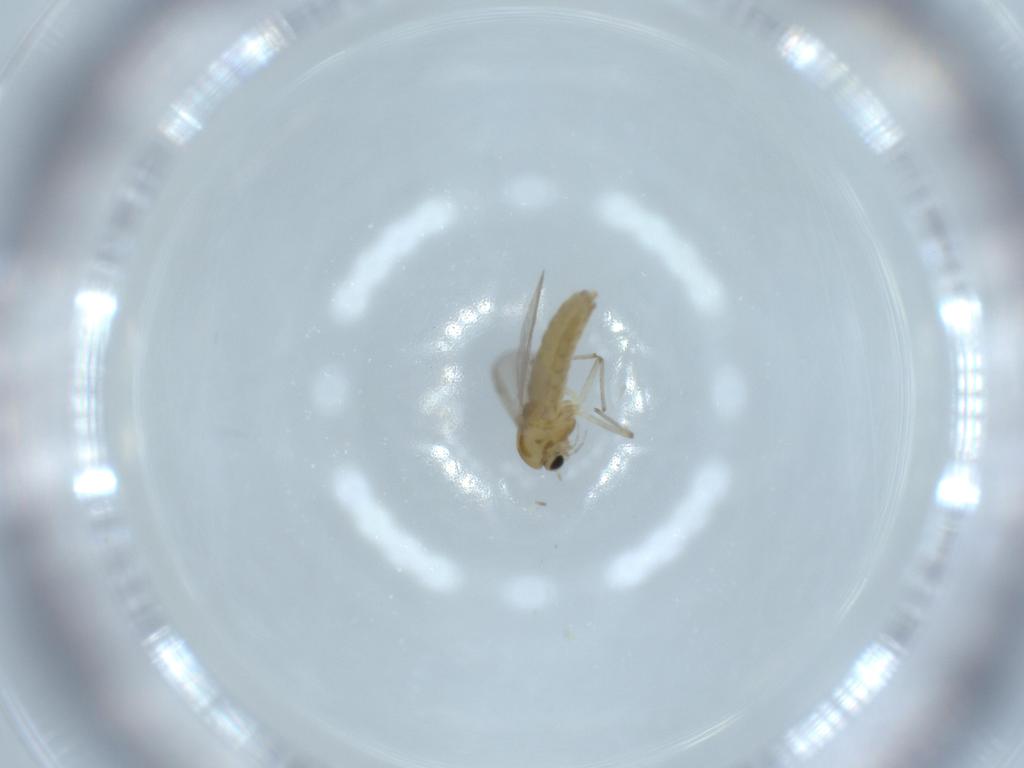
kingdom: Animalia
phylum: Arthropoda
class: Insecta
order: Diptera
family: Chironomidae
